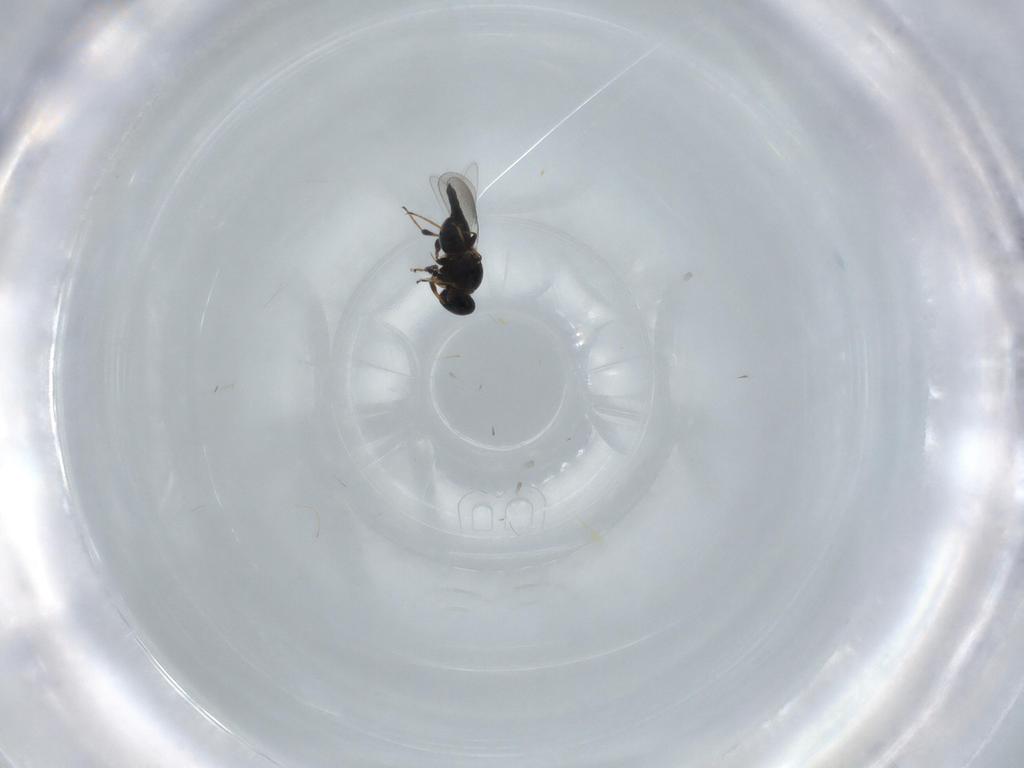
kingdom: Animalia
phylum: Arthropoda
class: Insecta
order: Hymenoptera
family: Platygastridae
